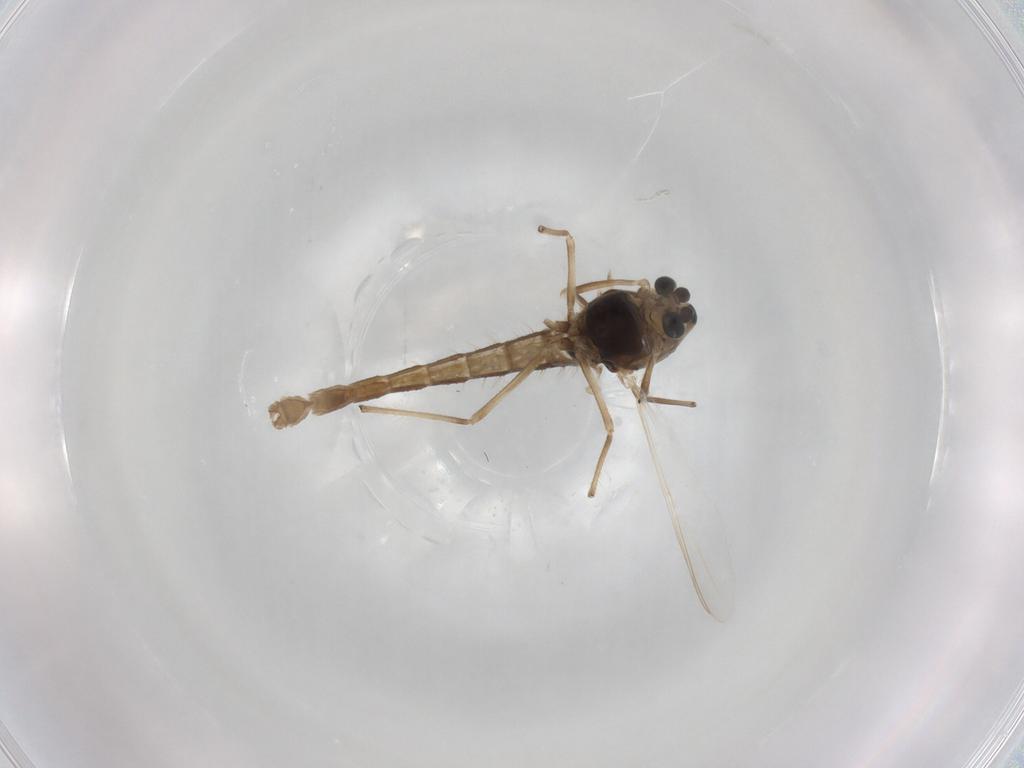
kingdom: Animalia
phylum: Arthropoda
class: Insecta
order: Diptera
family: Chironomidae
